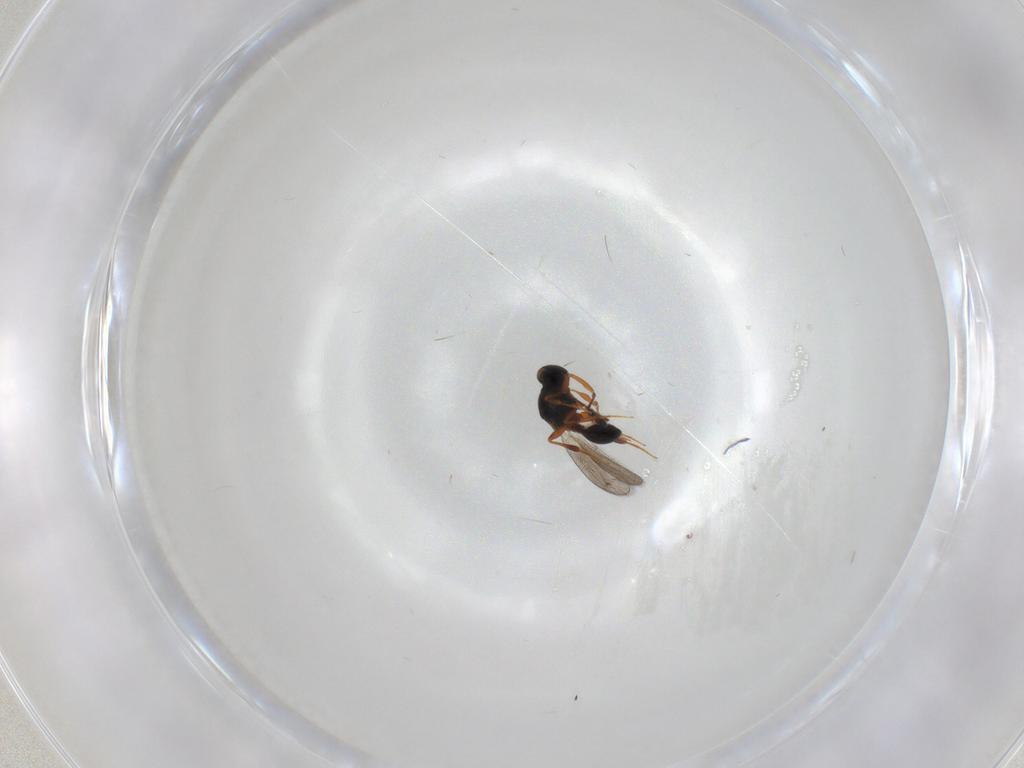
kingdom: Animalia
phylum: Arthropoda
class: Insecta
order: Hymenoptera
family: Platygastridae
